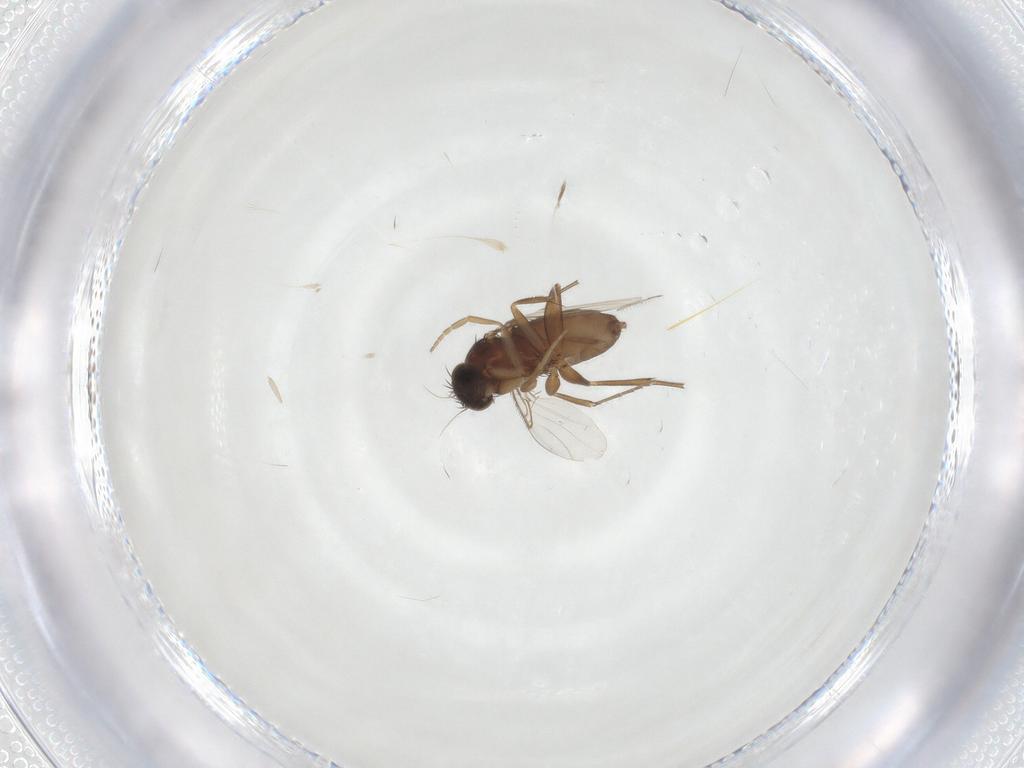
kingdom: Animalia
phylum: Arthropoda
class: Insecta
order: Diptera
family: Phoridae
